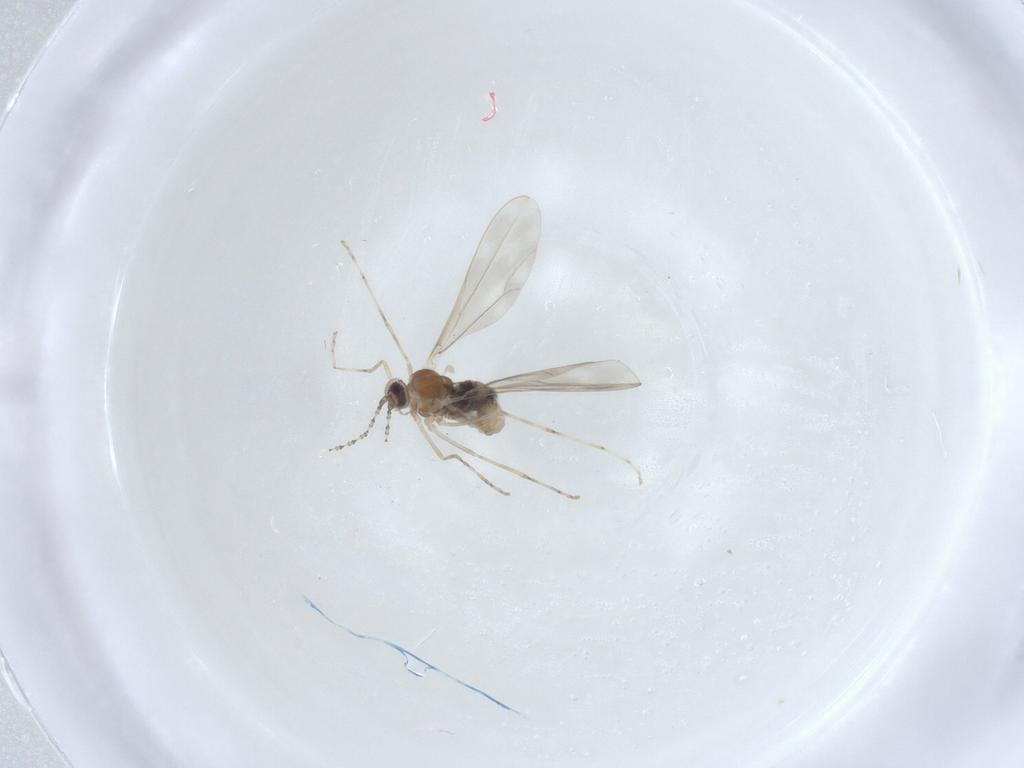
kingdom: Animalia
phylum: Arthropoda
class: Insecta
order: Diptera
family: Cecidomyiidae
